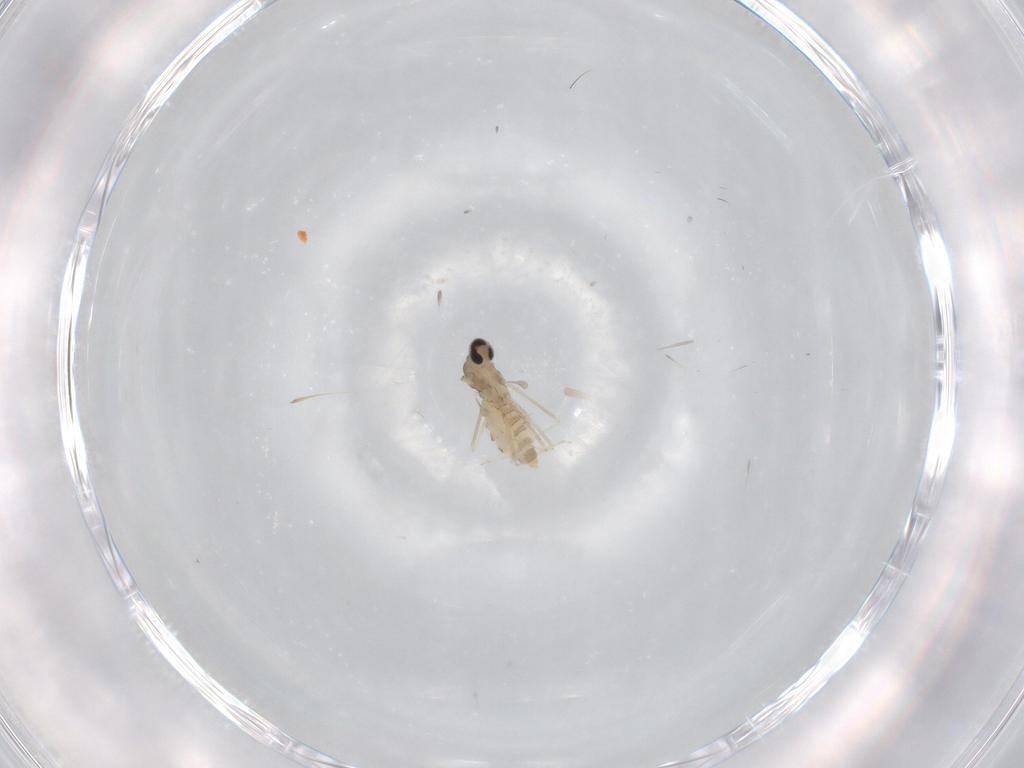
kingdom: Animalia
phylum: Arthropoda
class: Insecta
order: Diptera
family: Cecidomyiidae
